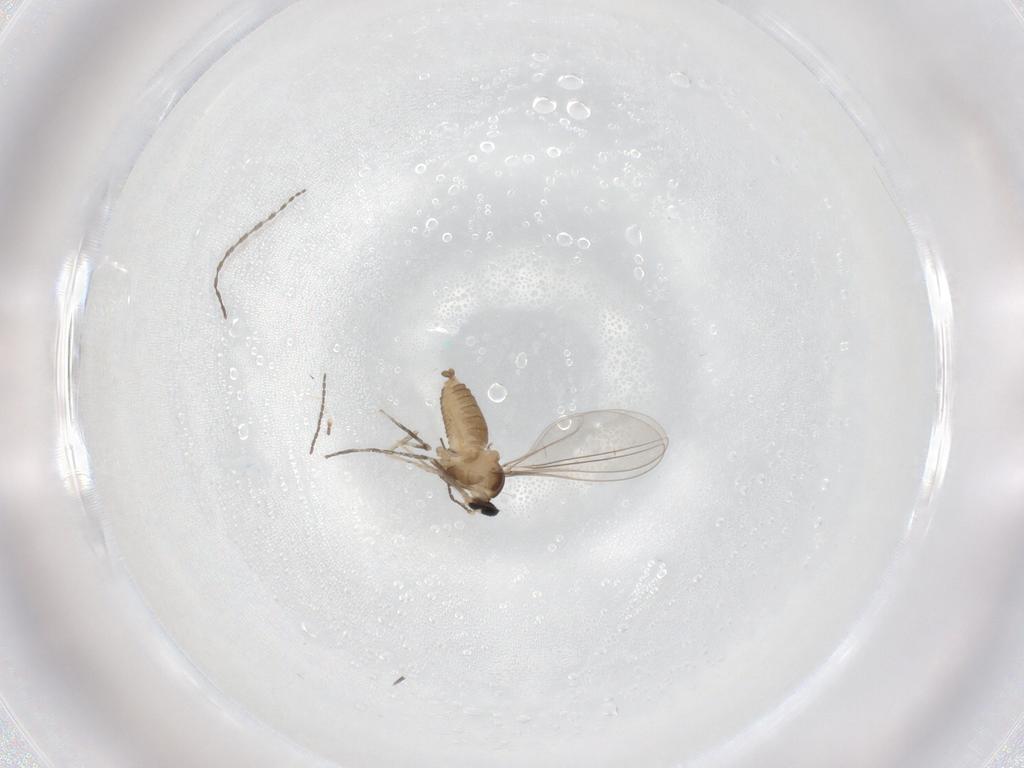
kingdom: Animalia
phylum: Arthropoda
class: Insecta
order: Diptera
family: Cecidomyiidae
